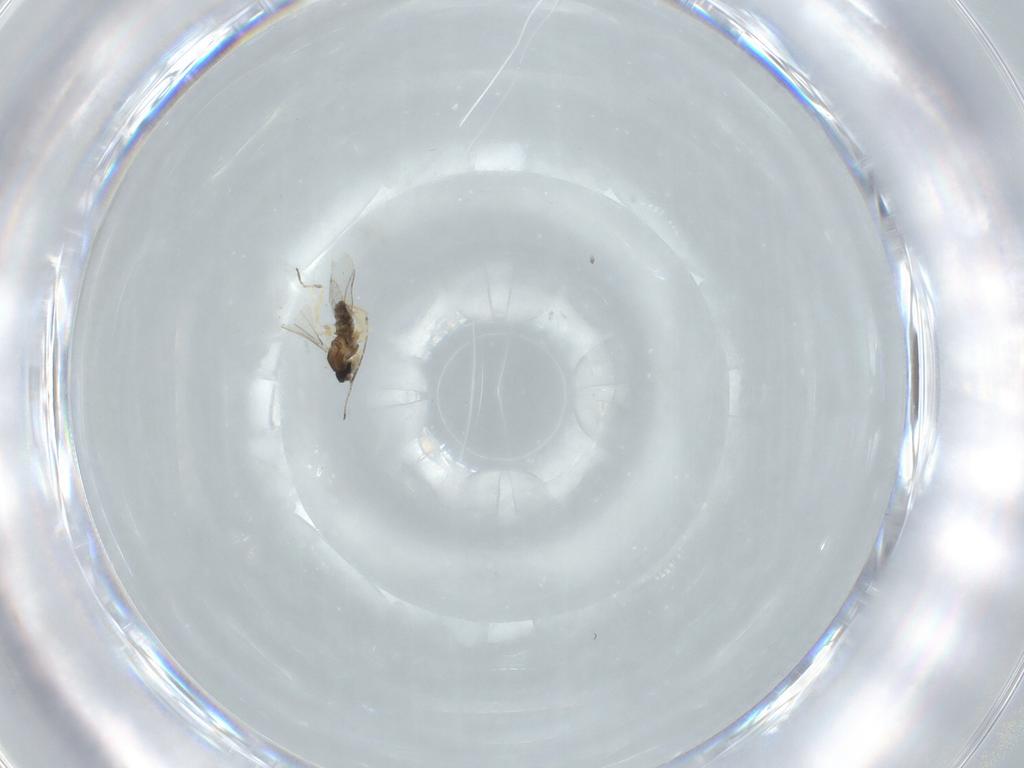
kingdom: Animalia
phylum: Arthropoda
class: Insecta
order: Diptera
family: Cecidomyiidae
